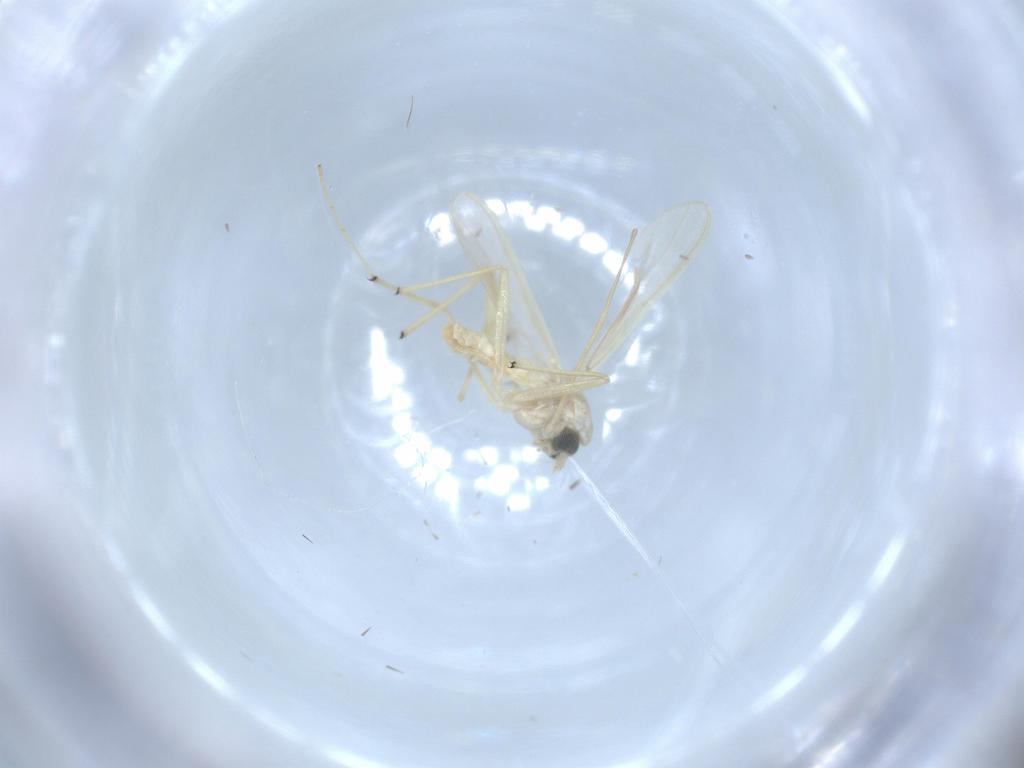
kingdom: Animalia
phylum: Arthropoda
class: Insecta
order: Diptera
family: Chironomidae
